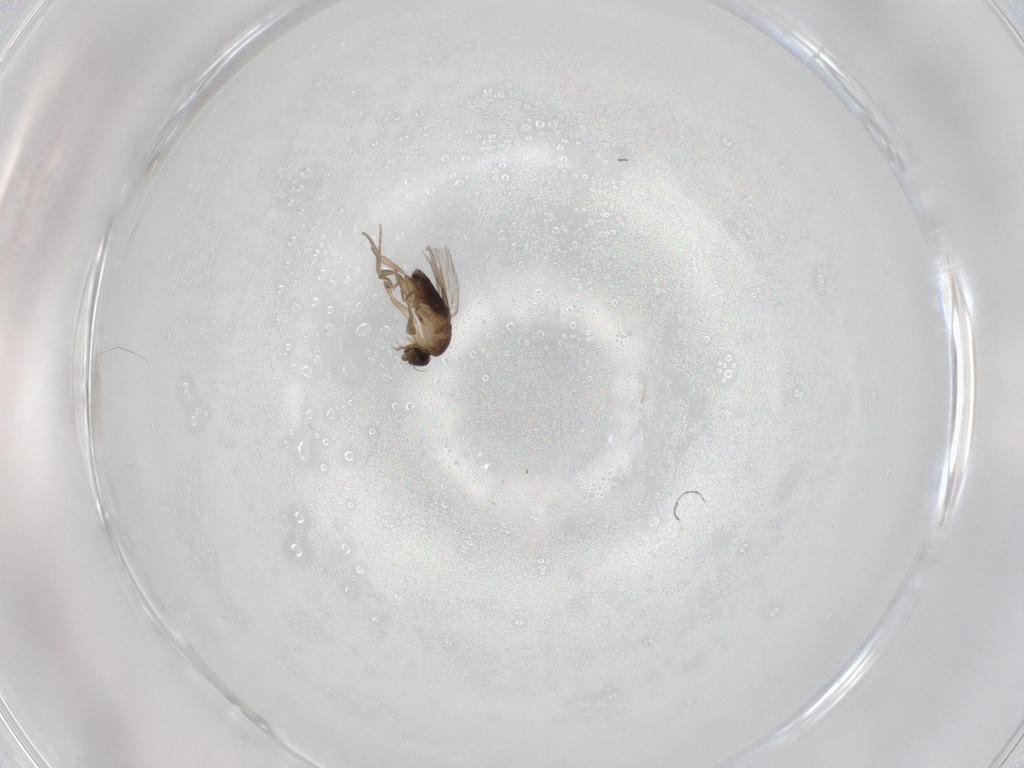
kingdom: Animalia
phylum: Arthropoda
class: Insecta
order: Diptera
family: Phoridae
